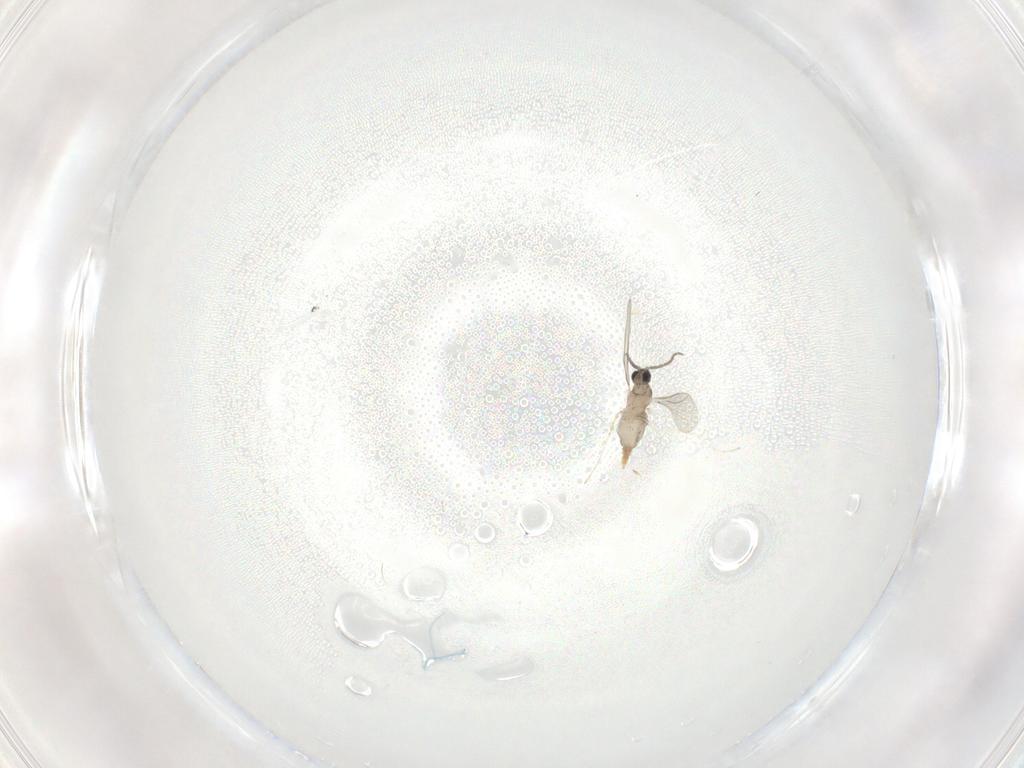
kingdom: Animalia
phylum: Arthropoda
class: Insecta
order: Diptera
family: Cecidomyiidae
